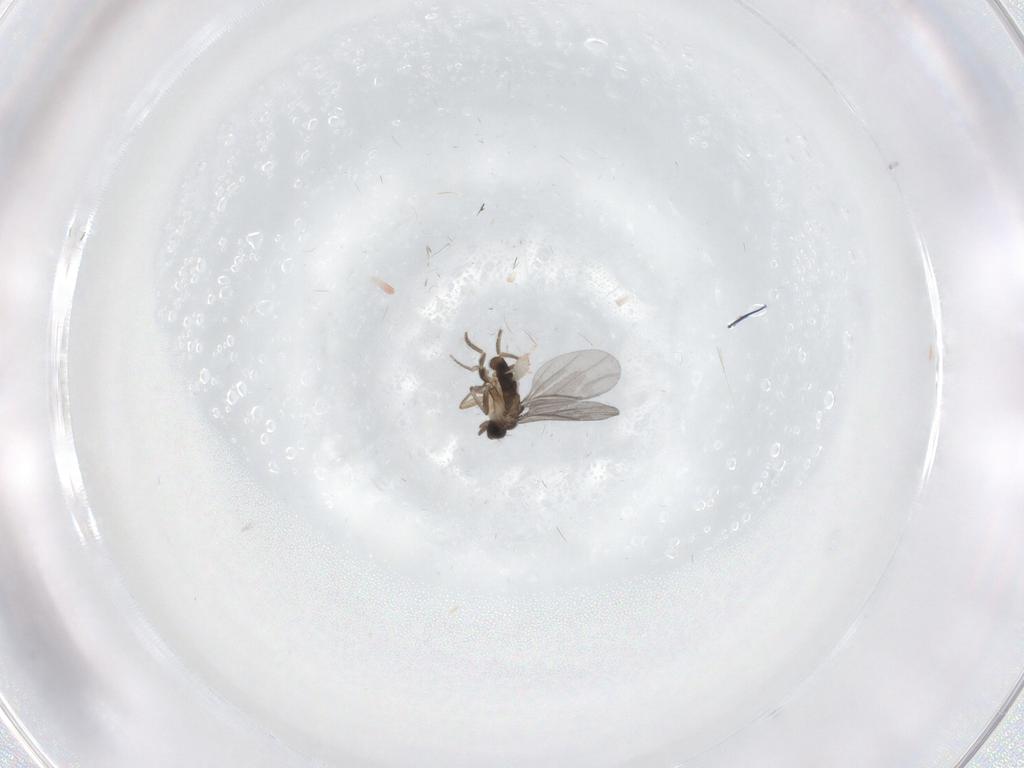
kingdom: Animalia
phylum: Arthropoda
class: Insecta
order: Diptera
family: Psychodidae
